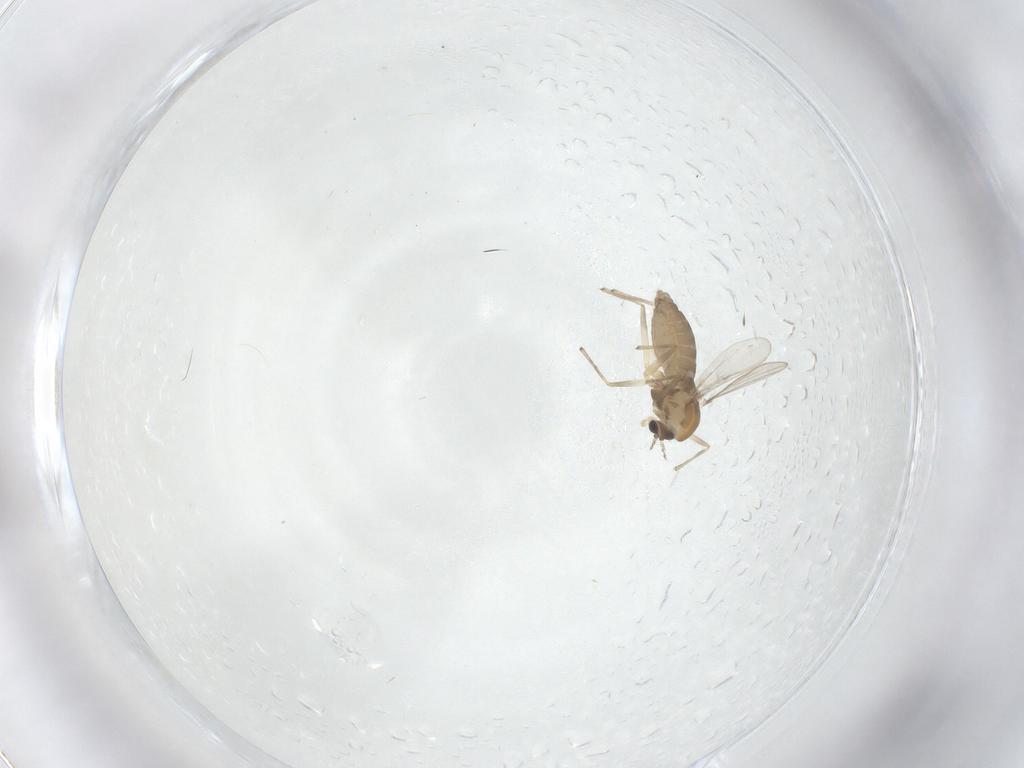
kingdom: Animalia
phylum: Arthropoda
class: Insecta
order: Diptera
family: Chironomidae
